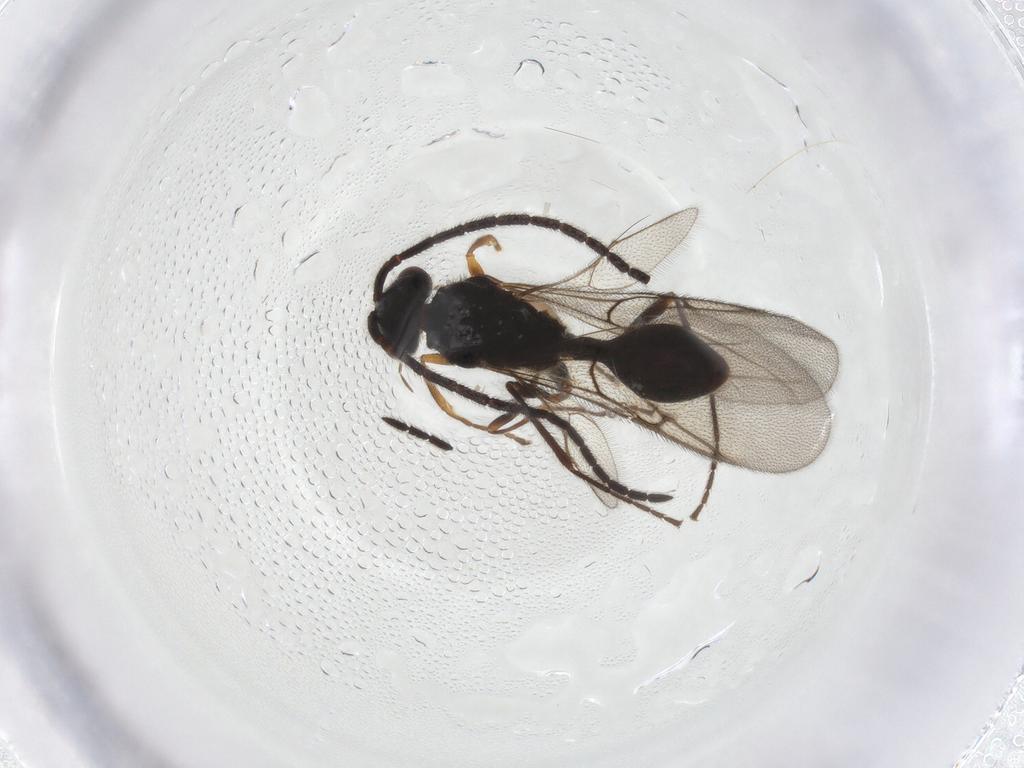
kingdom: Animalia
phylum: Arthropoda
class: Insecta
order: Hymenoptera
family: Diapriidae
